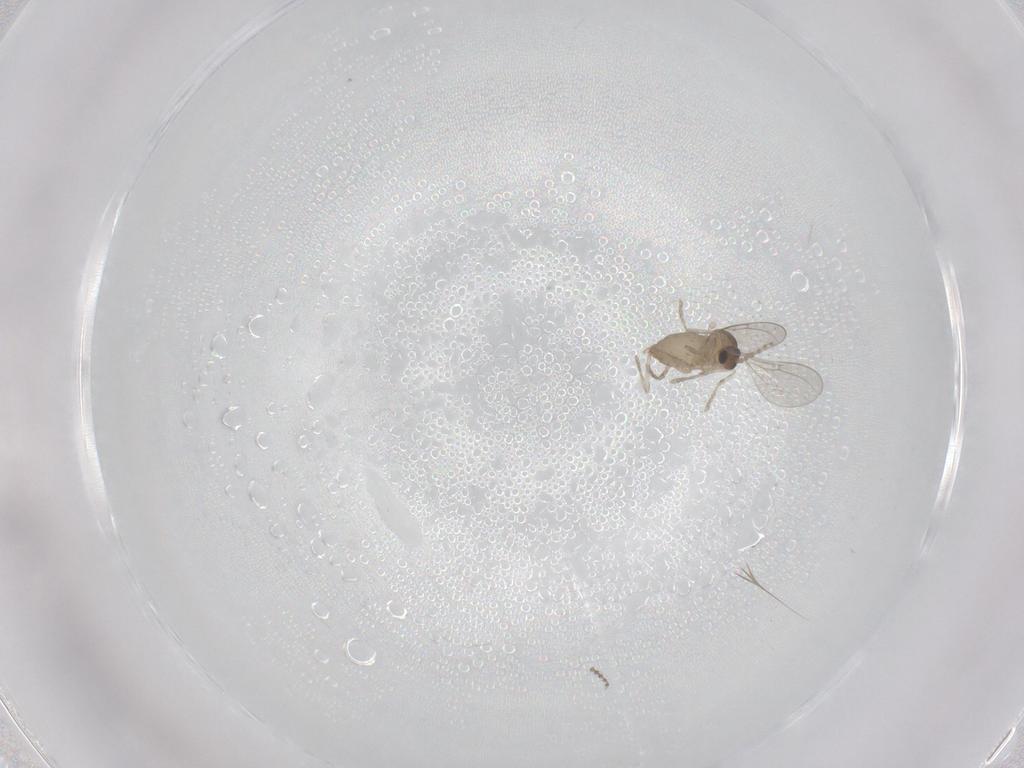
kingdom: Animalia
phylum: Arthropoda
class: Insecta
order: Diptera
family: Cecidomyiidae
